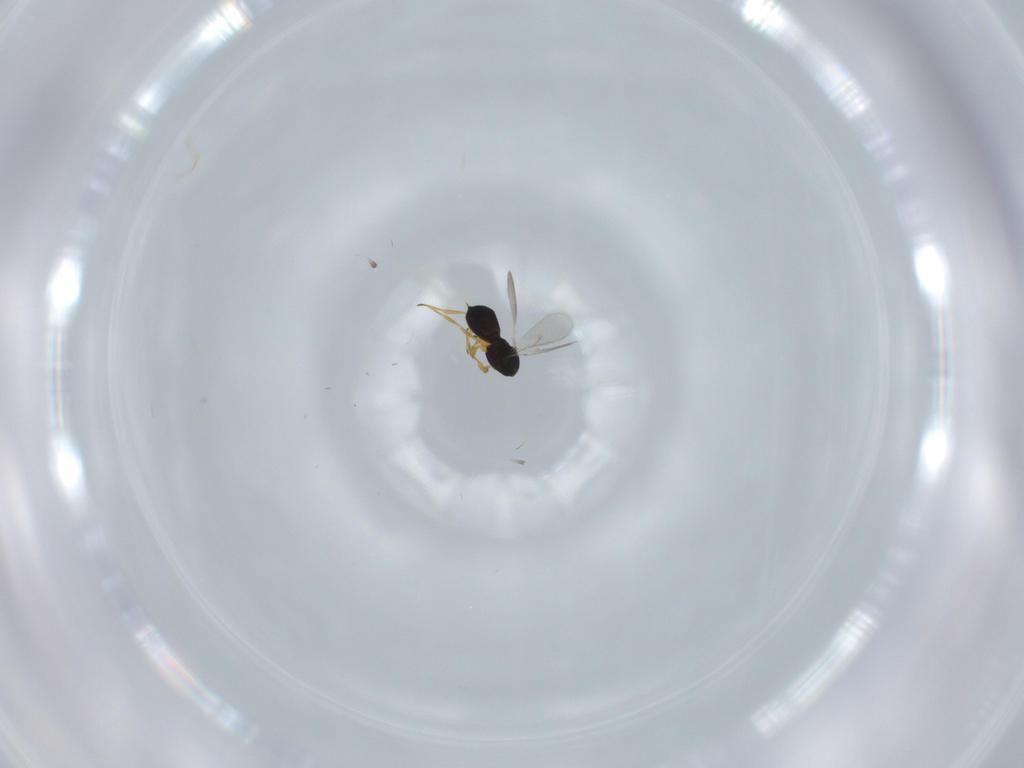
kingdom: Animalia
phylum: Arthropoda
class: Insecta
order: Hymenoptera
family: Scelionidae
